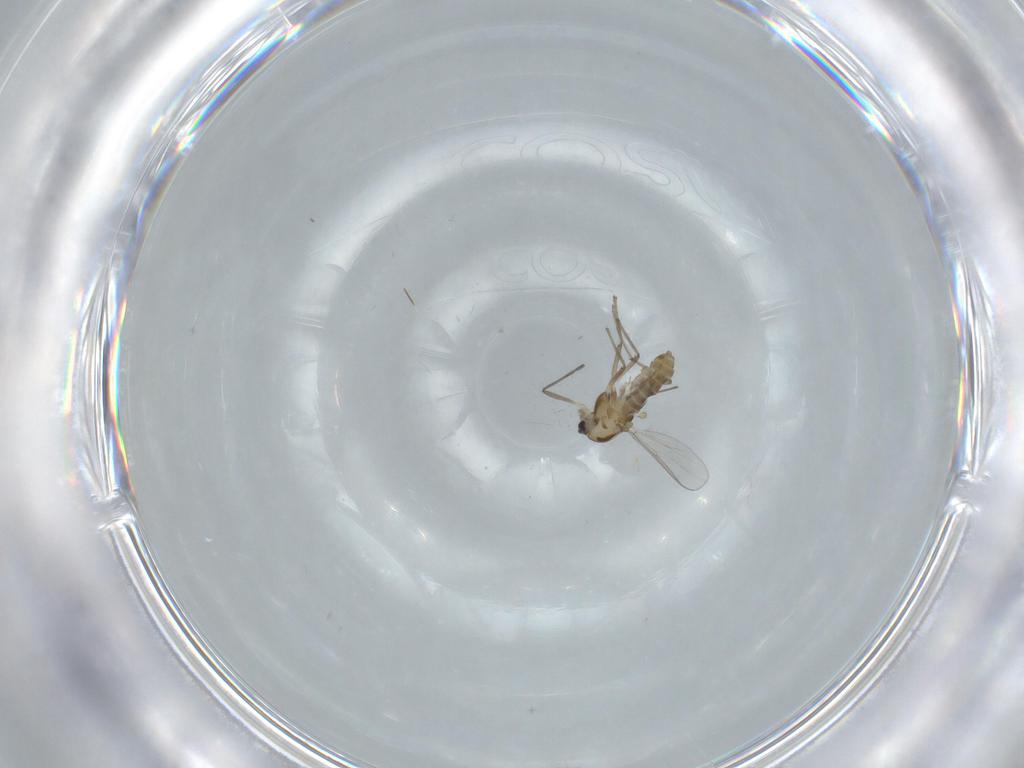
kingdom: Animalia
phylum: Arthropoda
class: Insecta
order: Diptera
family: Chironomidae
